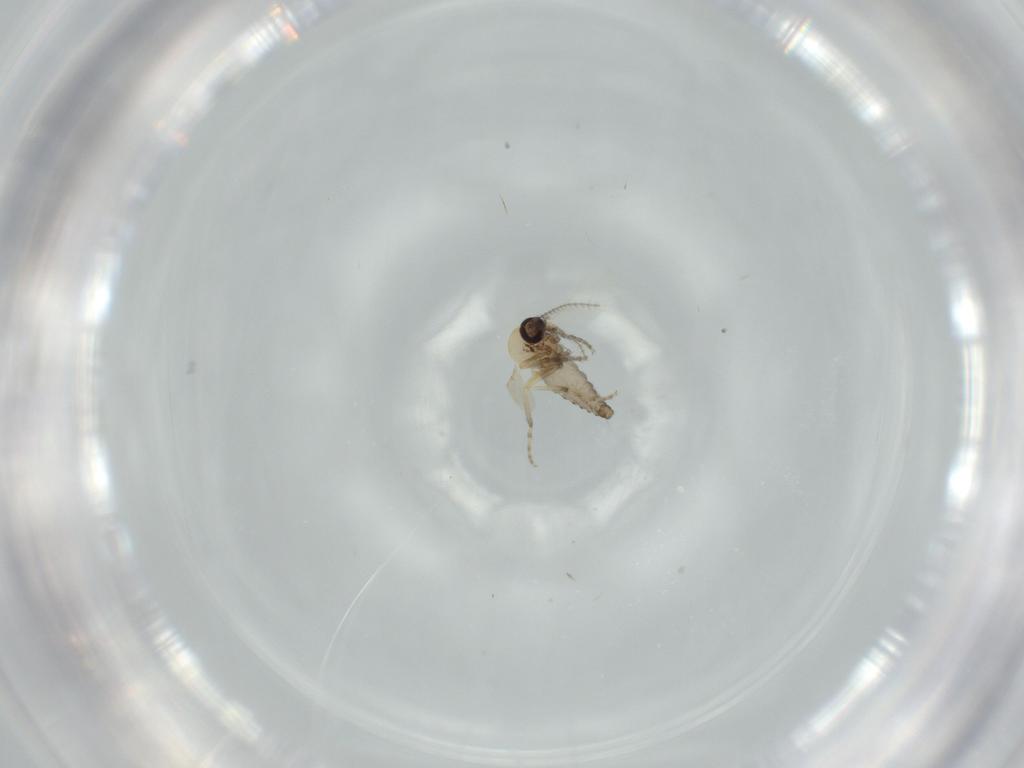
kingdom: Animalia
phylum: Arthropoda
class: Insecta
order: Diptera
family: Ceratopogonidae
